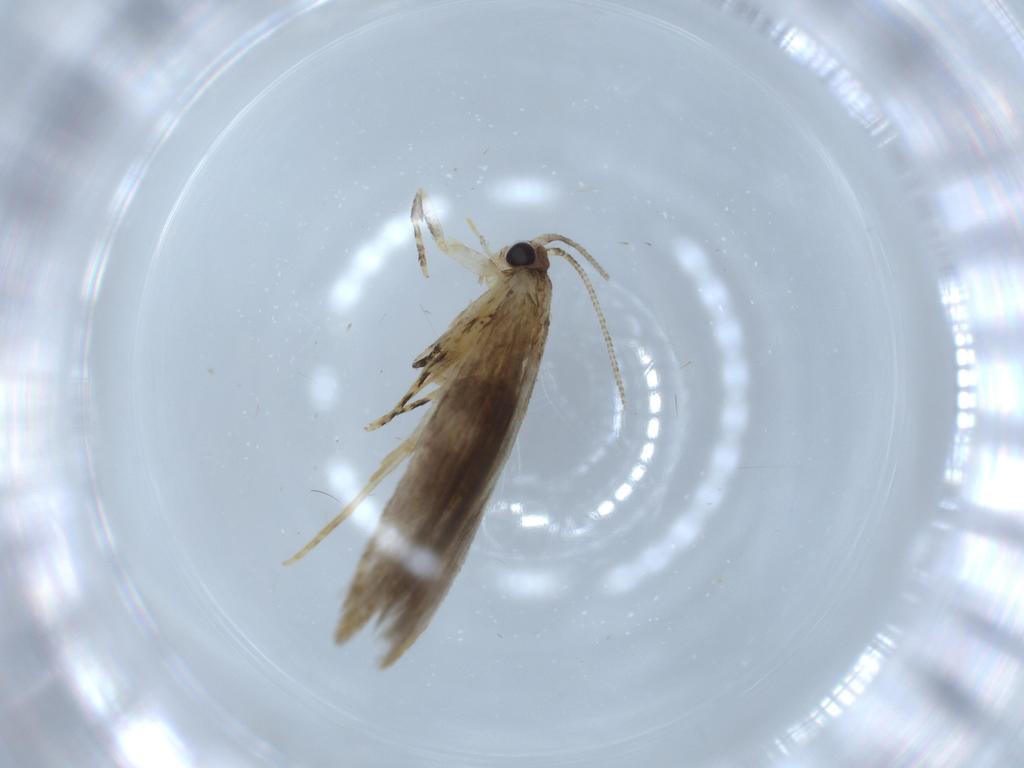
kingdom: Animalia
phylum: Arthropoda
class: Insecta
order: Lepidoptera
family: Tineidae
